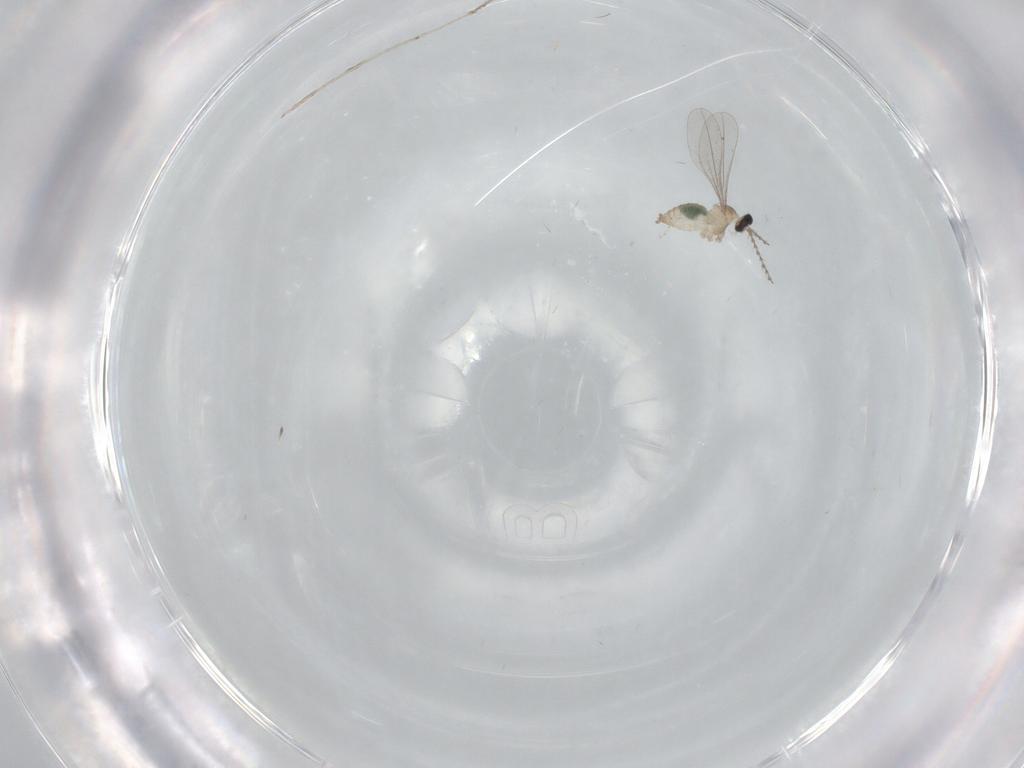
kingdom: Animalia
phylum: Arthropoda
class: Insecta
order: Diptera
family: Cecidomyiidae
